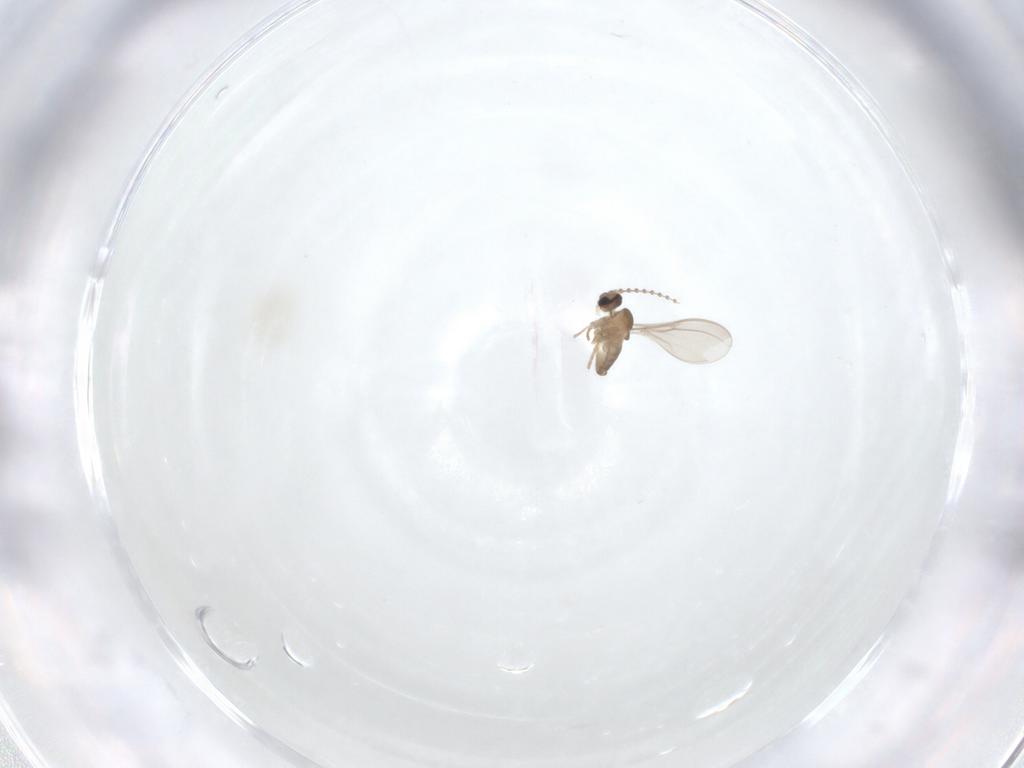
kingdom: Animalia
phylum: Arthropoda
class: Insecta
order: Diptera
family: Cecidomyiidae
